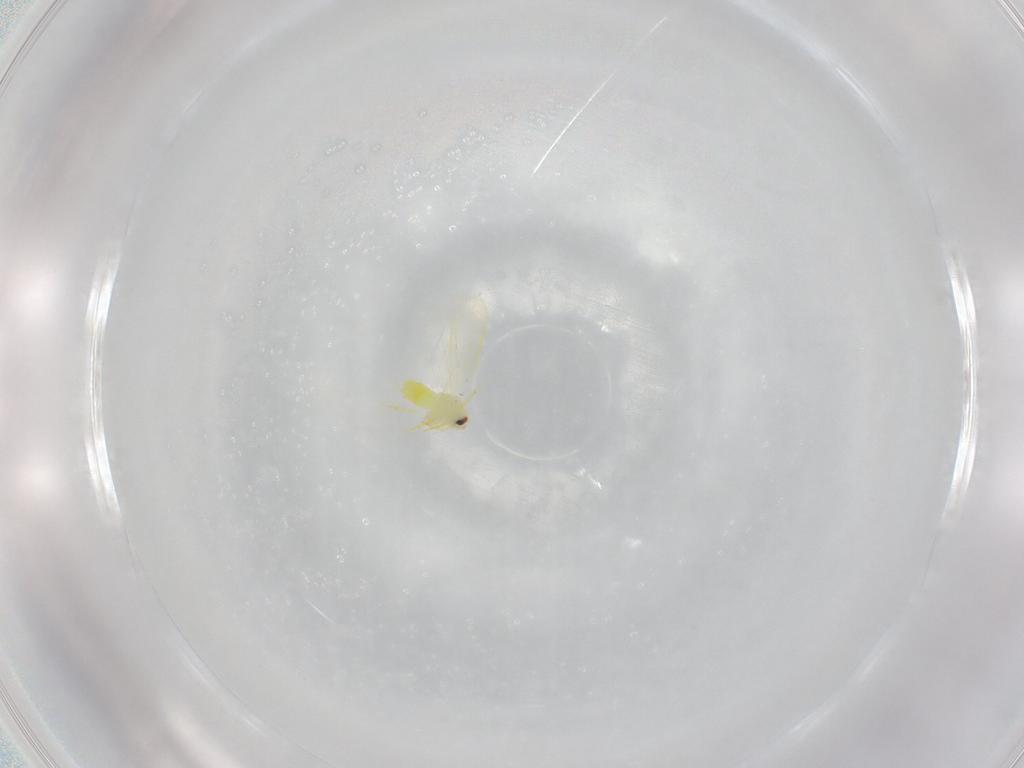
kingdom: Animalia
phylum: Arthropoda
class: Insecta
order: Hemiptera
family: Aleyrodidae
